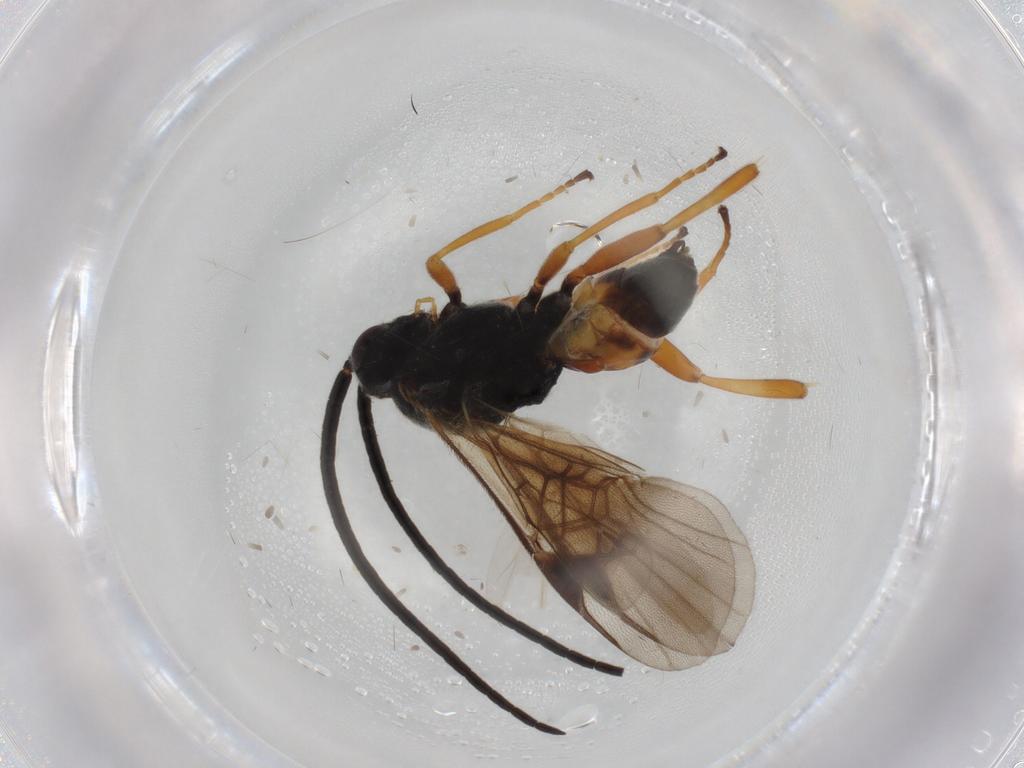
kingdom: Animalia
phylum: Arthropoda
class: Insecta
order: Hymenoptera
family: Braconidae
